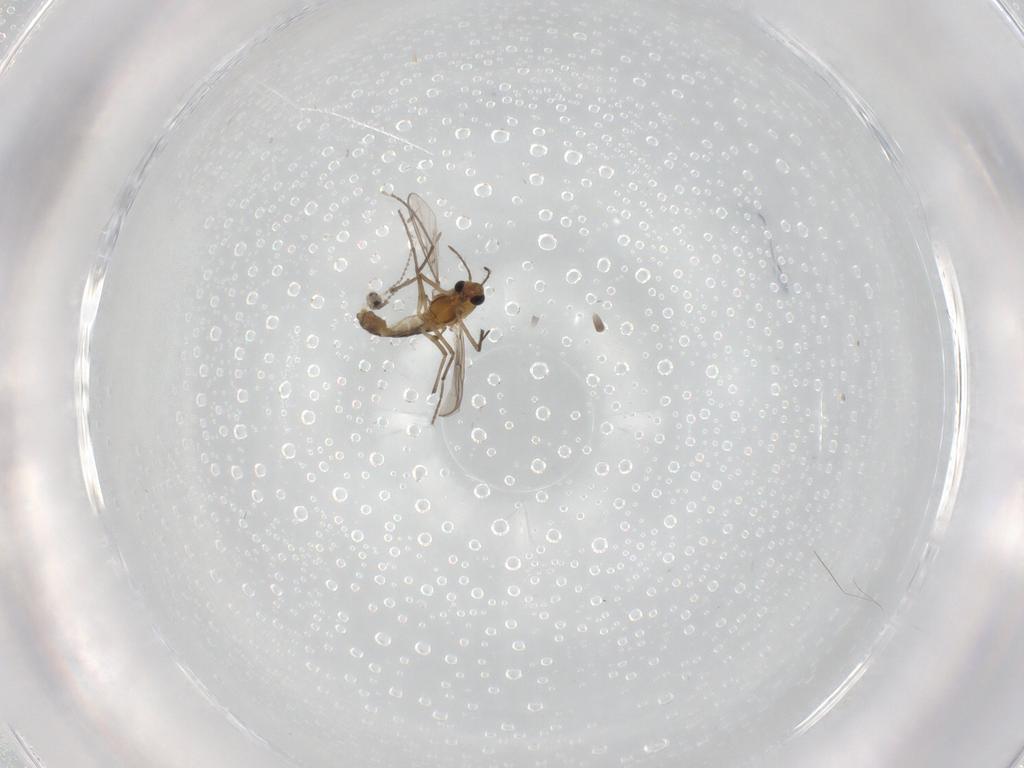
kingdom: Animalia
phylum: Arthropoda
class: Insecta
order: Diptera
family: Chironomidae
